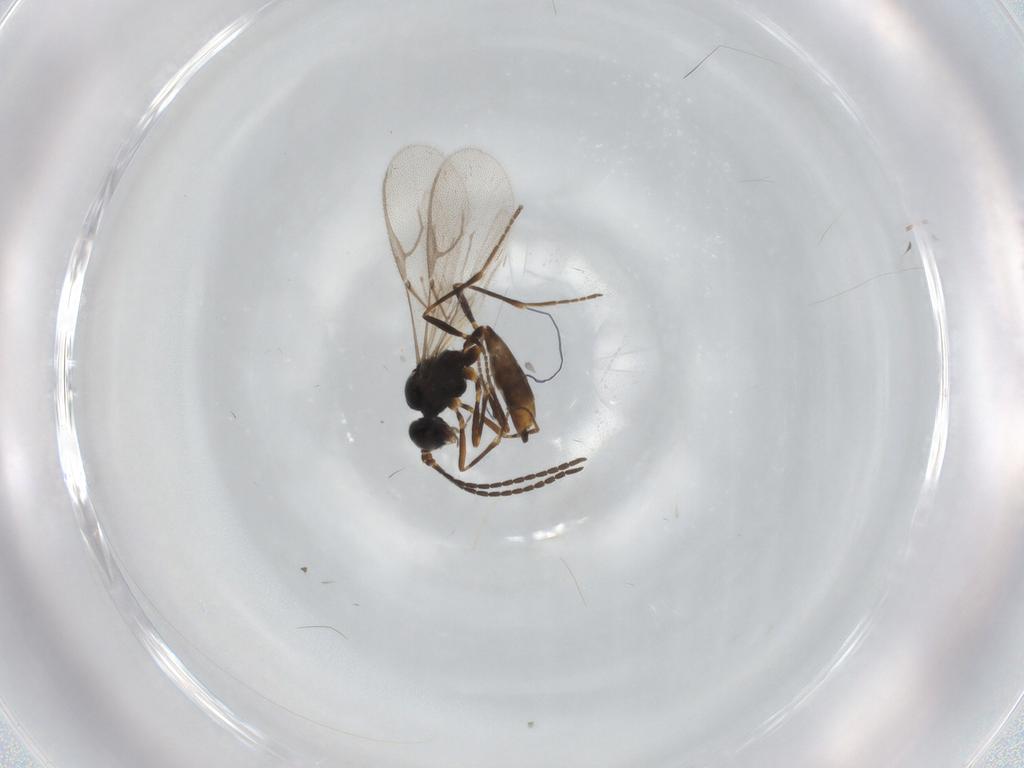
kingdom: Animalia
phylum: Arthropoda
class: Insecta
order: Hymenoptera
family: Braconidae
